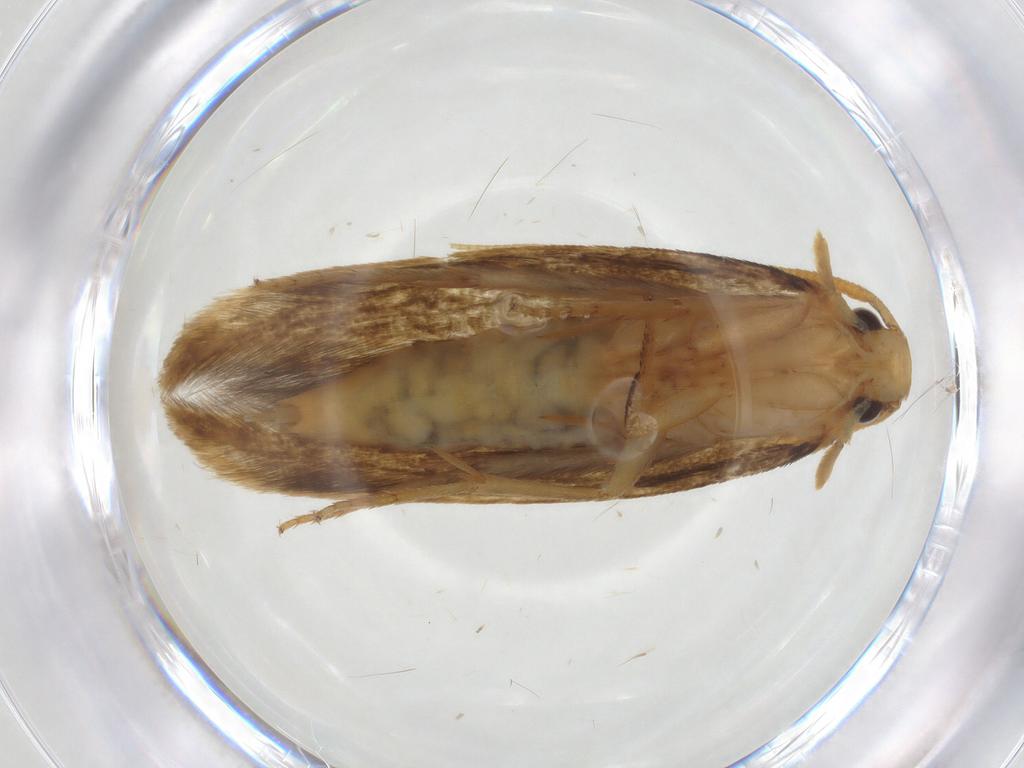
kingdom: Animalia
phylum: Arthropoda
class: Insecta
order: Lepidoptera
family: Tineidae
